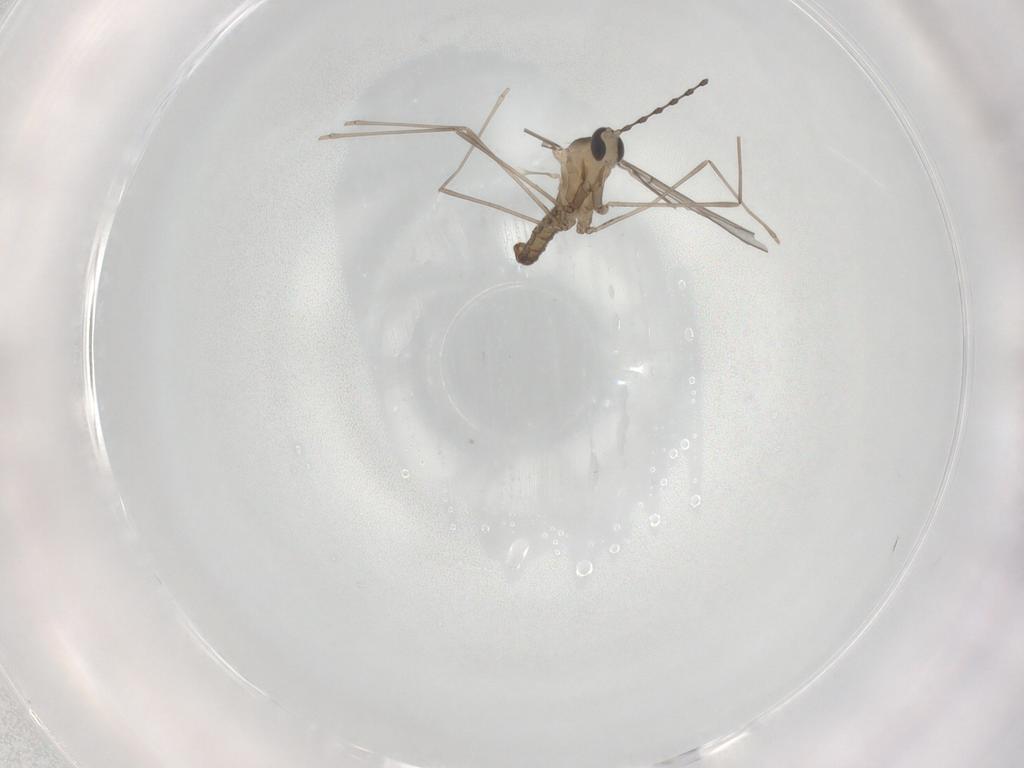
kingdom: Animalia
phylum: Arthropoda
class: Insecta
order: Diptera
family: Cecidomyiidae
